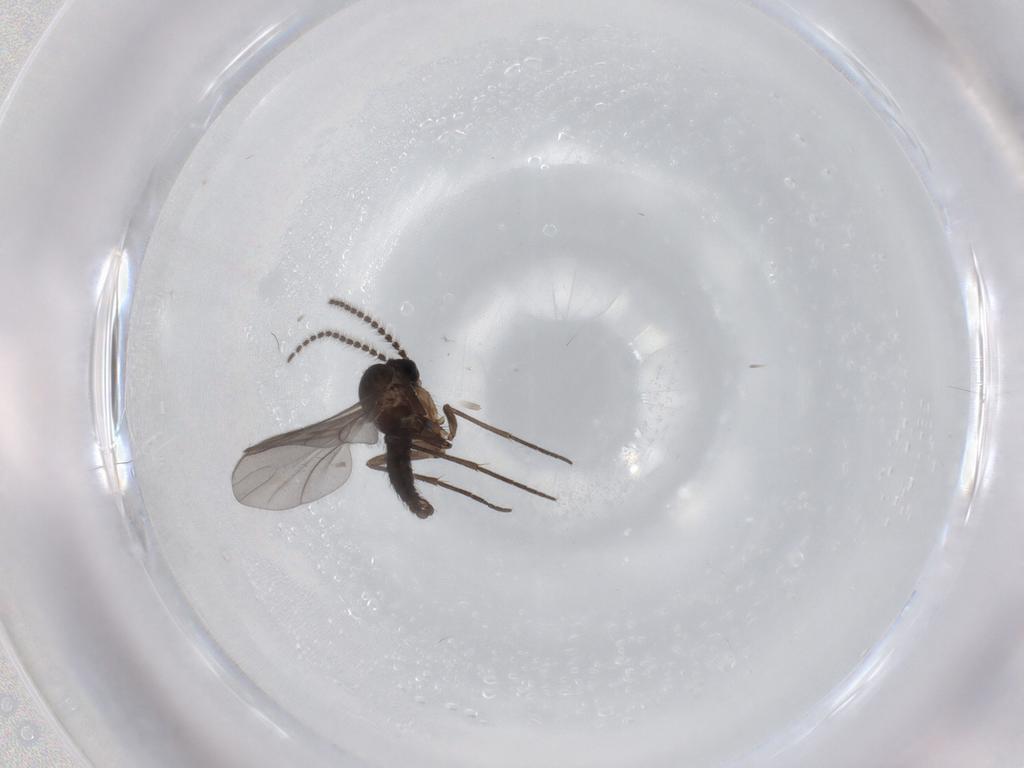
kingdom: Animalia
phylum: Arthropoda
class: Insecta
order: Diptera
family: Sciaridae
